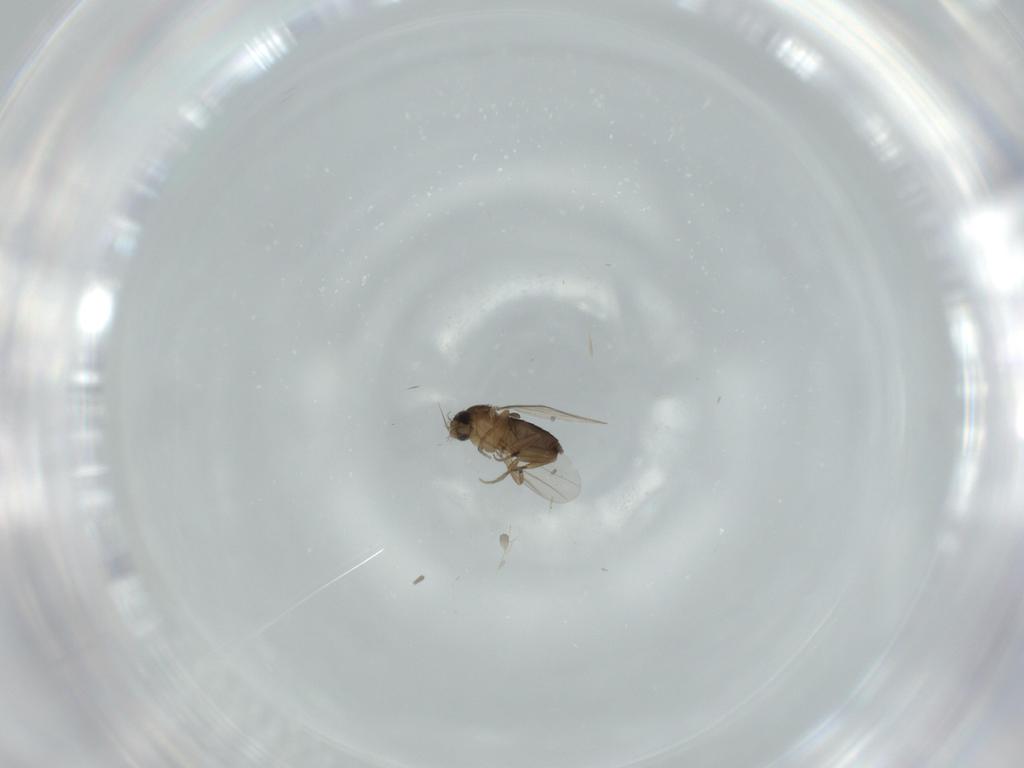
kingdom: Animalia
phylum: Arthropoda
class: Insecta
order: Diptera
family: Phoridae
